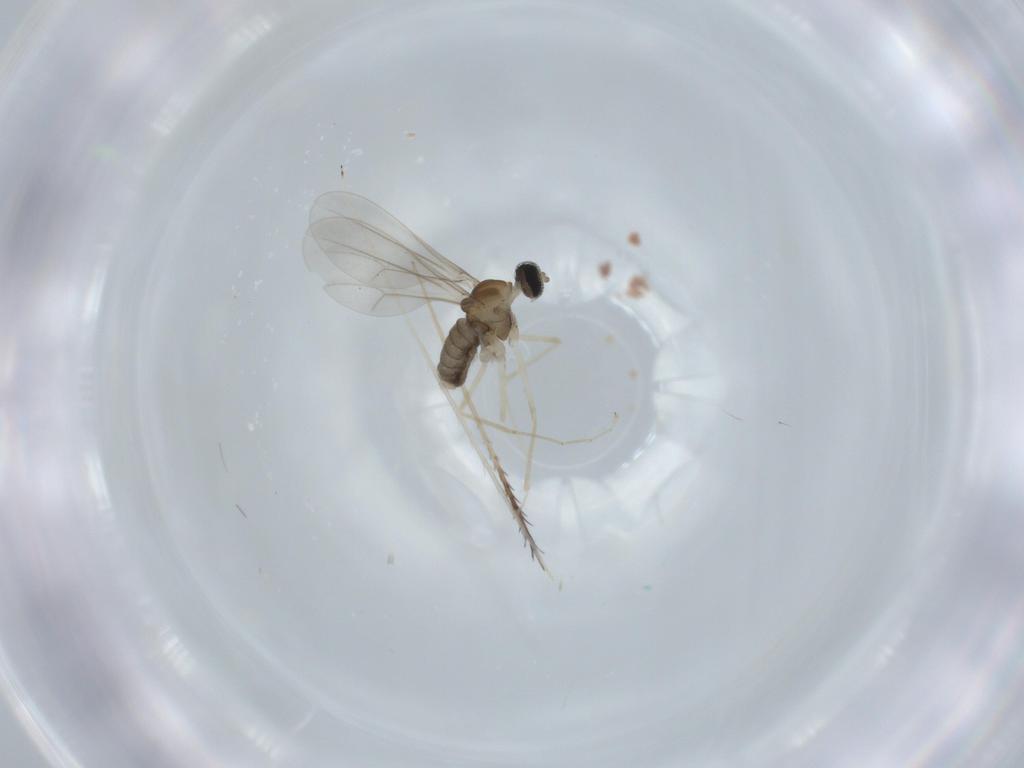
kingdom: Animalia
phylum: Arthropoda
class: Insecta
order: Diptera
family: Cecidomyiidae
